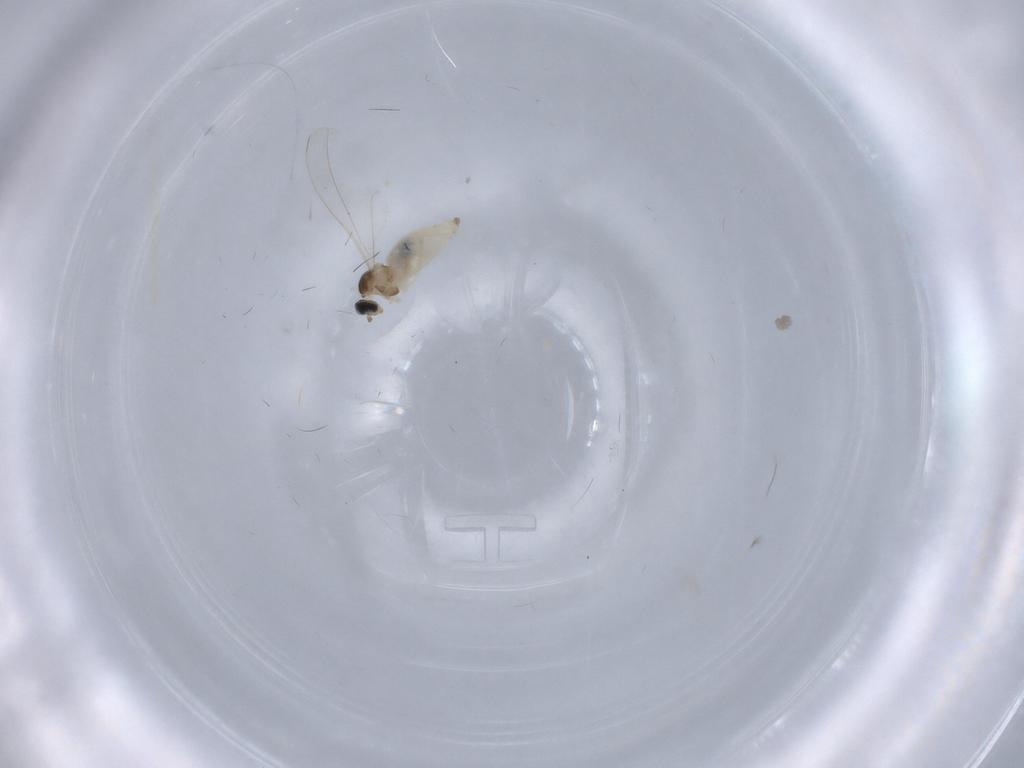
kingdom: Animalia
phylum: Arthropoda
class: Insecta
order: Diptera
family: Cecidomyiidae
